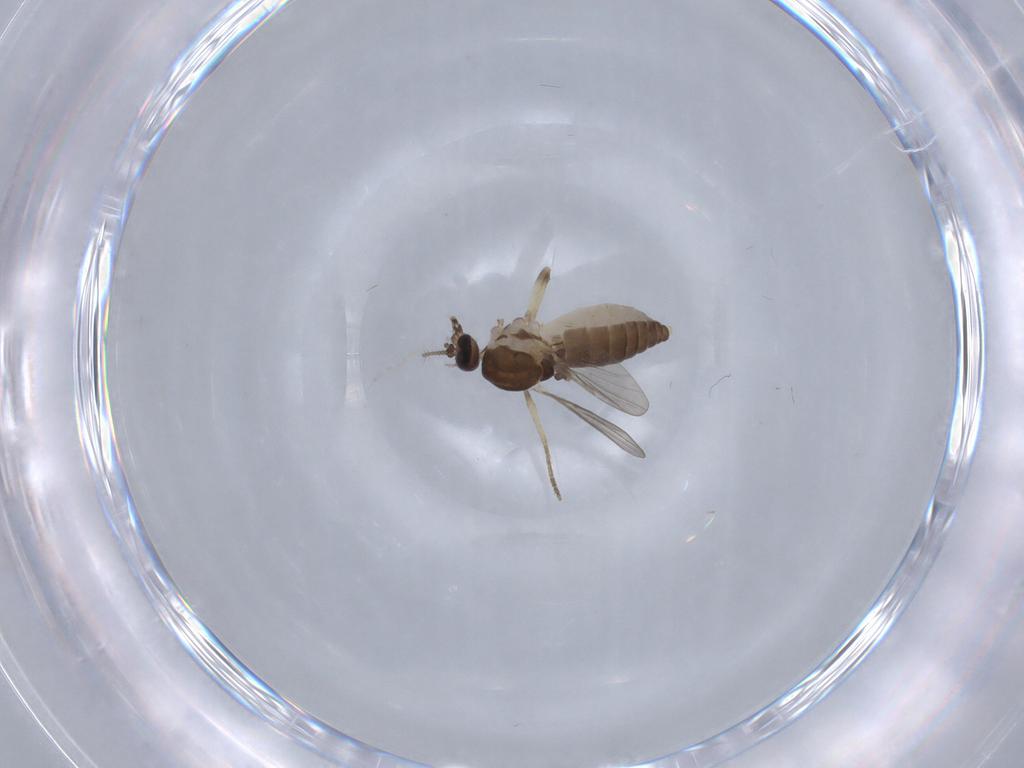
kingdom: Animalia
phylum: Arthropoda
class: Insecta
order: Diptera
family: Ceratopogonidae
